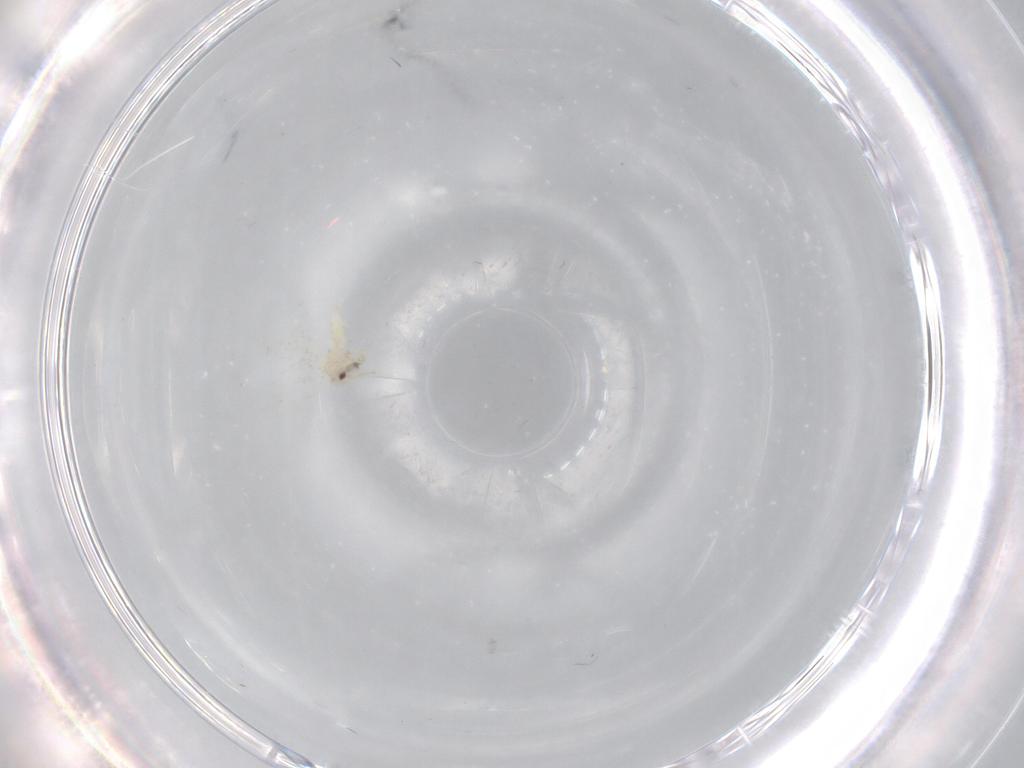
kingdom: Animalia
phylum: Arthropoda
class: Insecta
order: Hemiptera
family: Aleyrodidae
